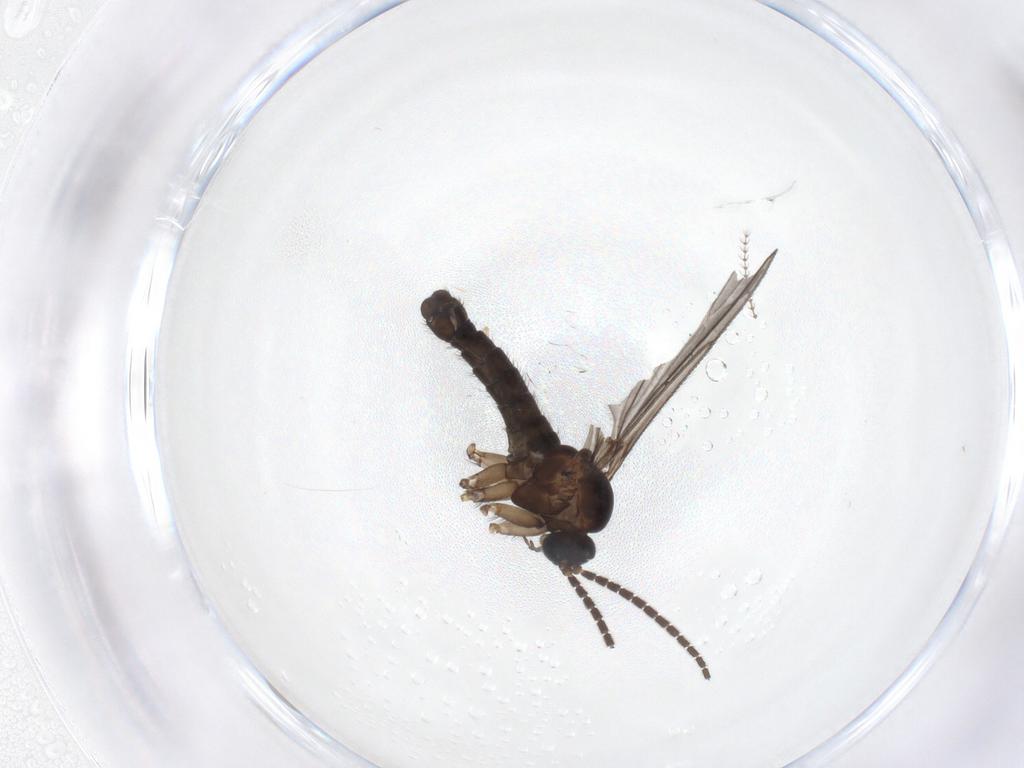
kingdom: Animalia
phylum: Arthropoda
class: Insecta
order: Diptera
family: Sciaridae
